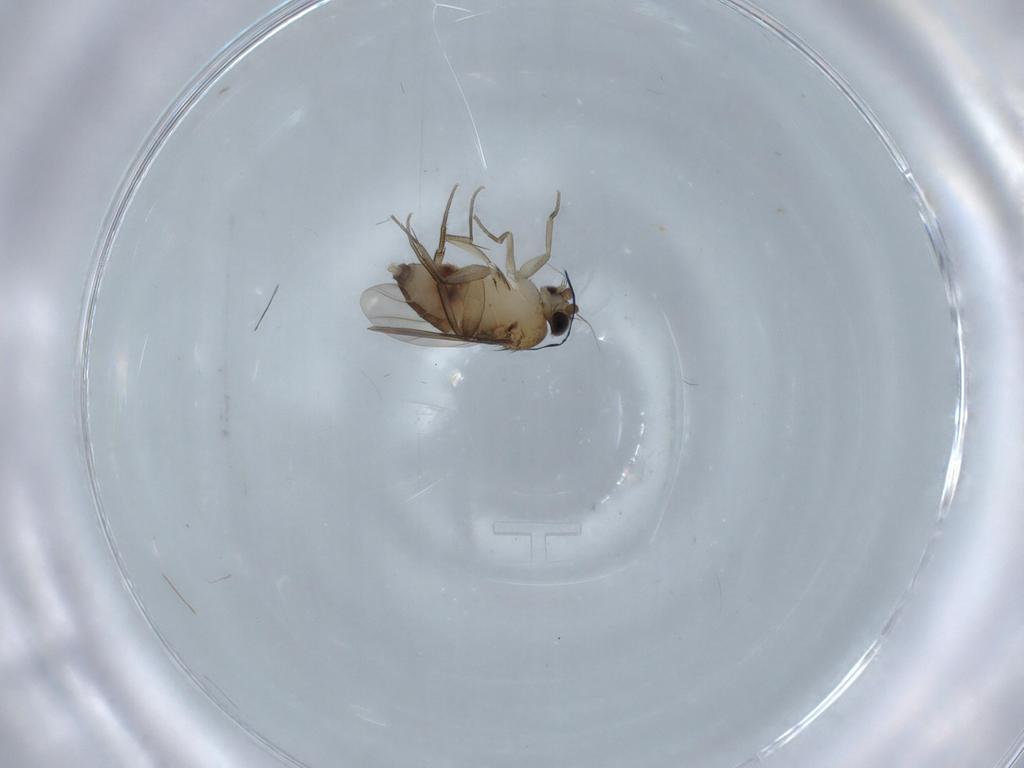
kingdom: Animalia
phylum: Arthropoda
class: Insecta
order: Diptera
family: Phoridae
